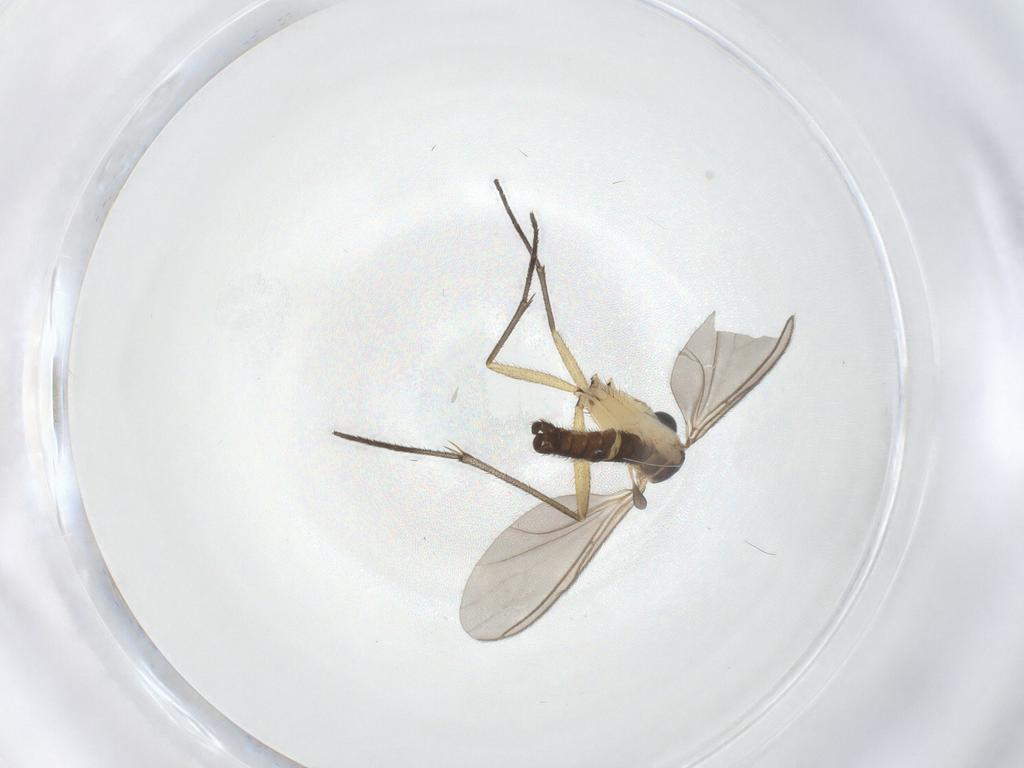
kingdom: Animalia
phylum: Arthropoda
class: Insecta
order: Diptera
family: Sciaridae
